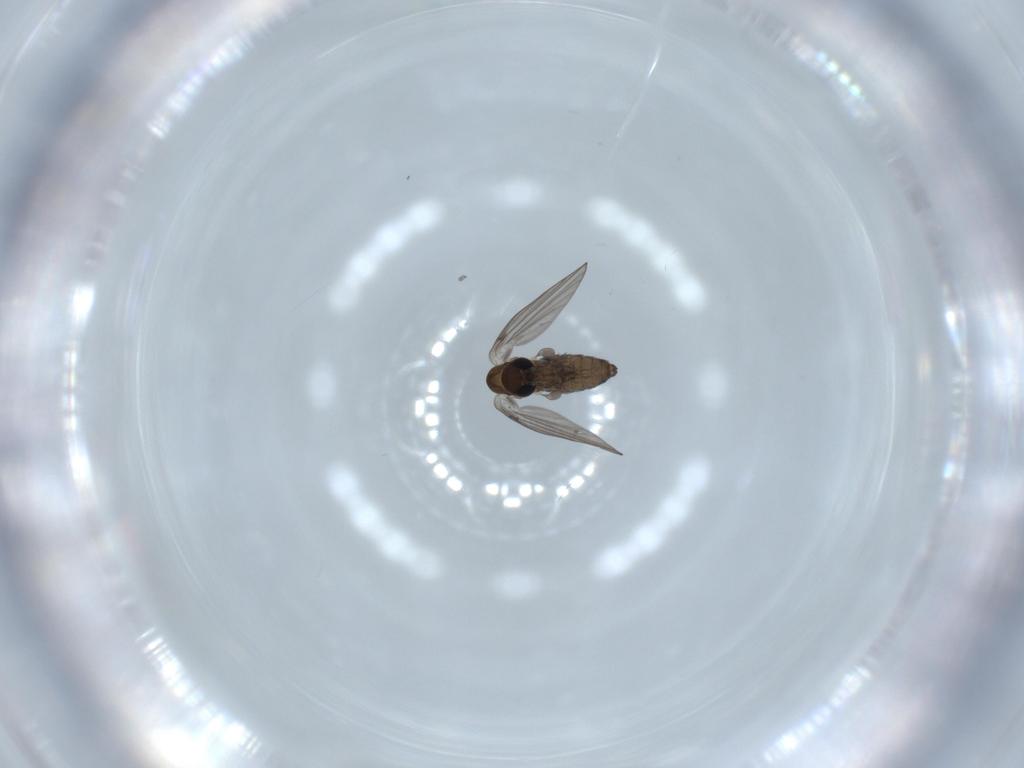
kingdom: Animalia
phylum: Arthropoda
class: Insecta
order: Diptera
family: Psychodidae
